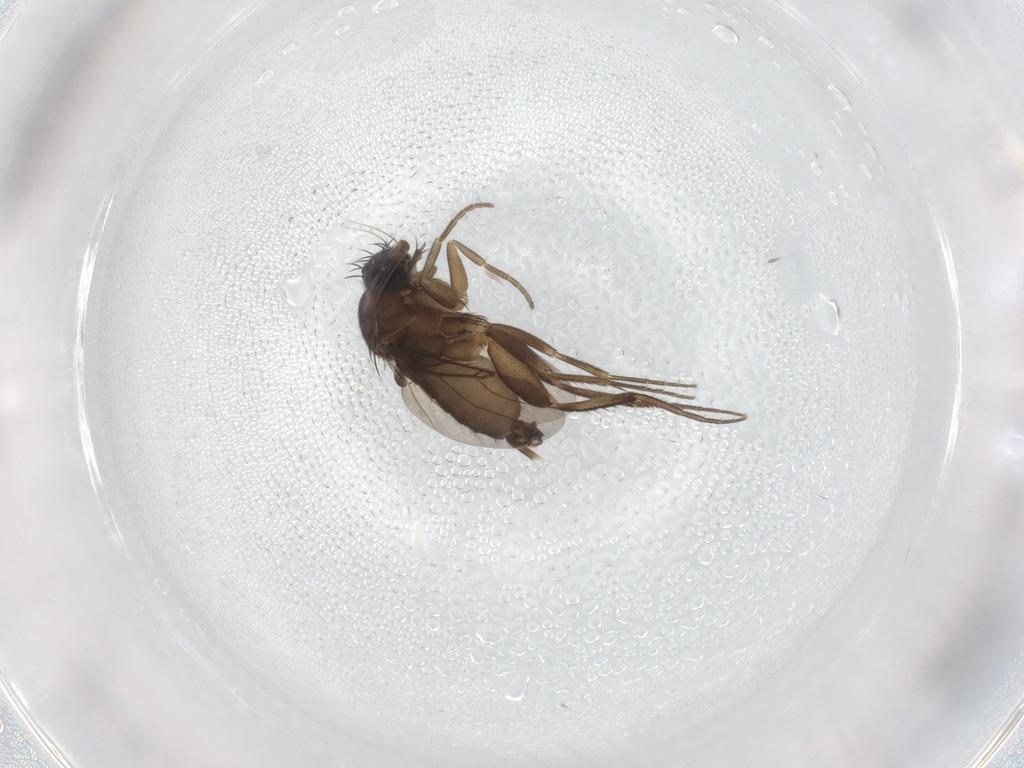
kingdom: Animalia
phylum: Arthropoda
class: Insecta
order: Diptera
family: Phoridae
